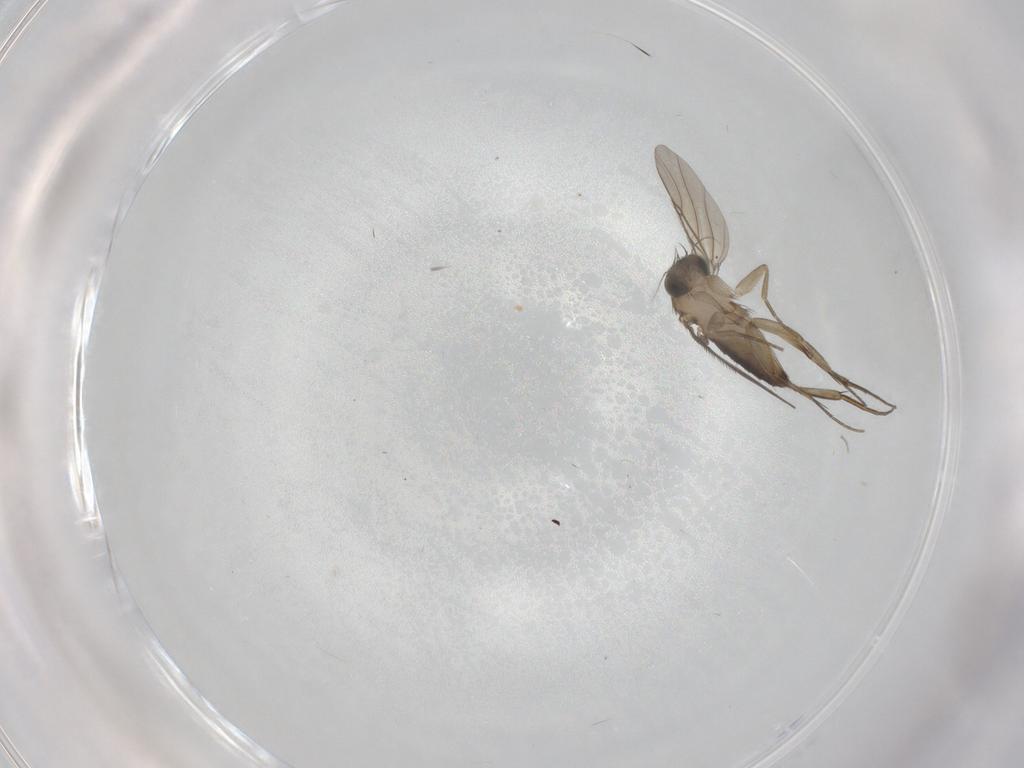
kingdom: Animalia
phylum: Arthropoda
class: Insecta
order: Diptera
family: Phoridae
